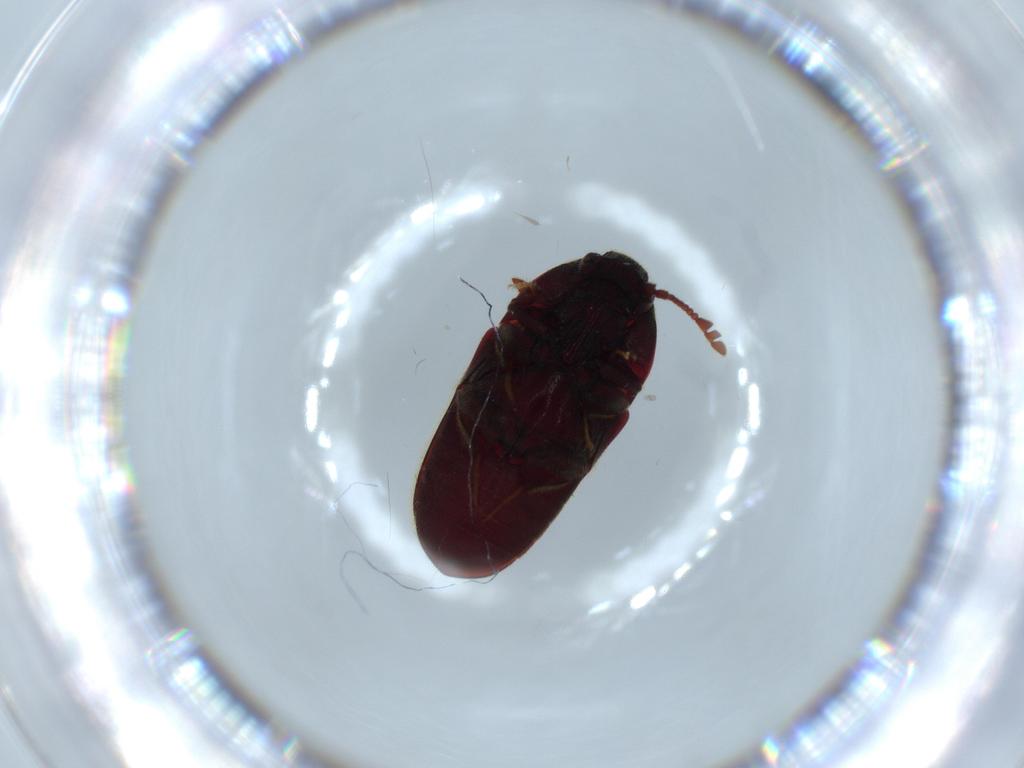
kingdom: Animalia
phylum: Arthropoda
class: Insecta
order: Coleoptera
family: Throscidae
